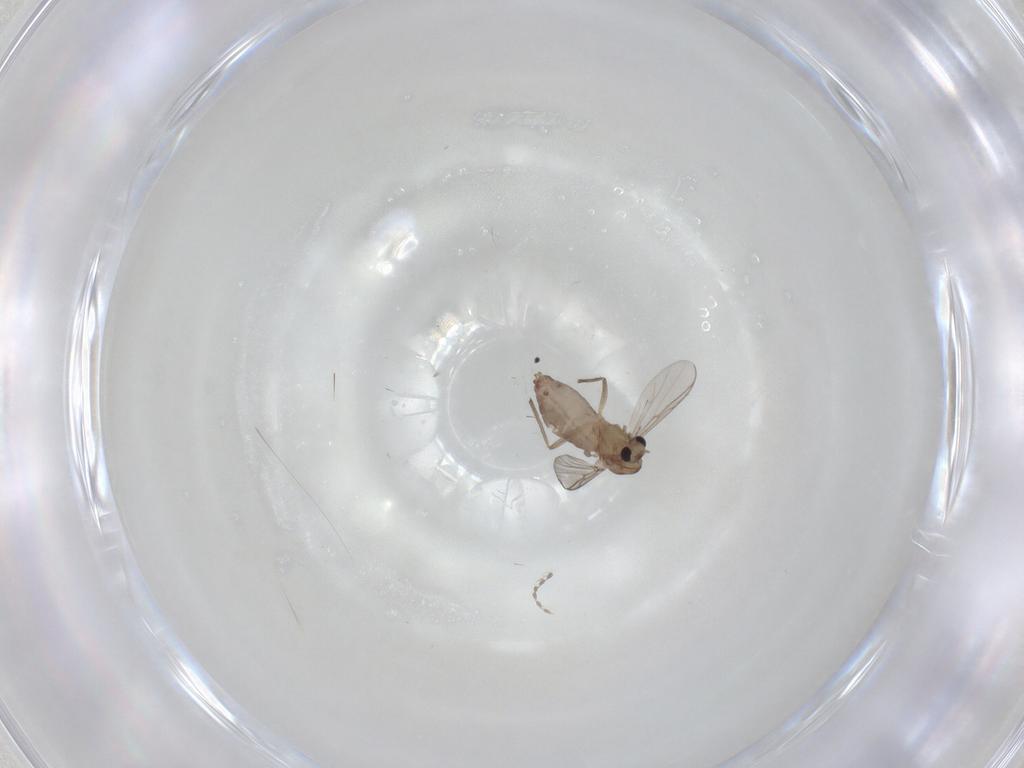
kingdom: Animalia
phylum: Arthropoda
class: Insecta
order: Diptera
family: Chironomidae
